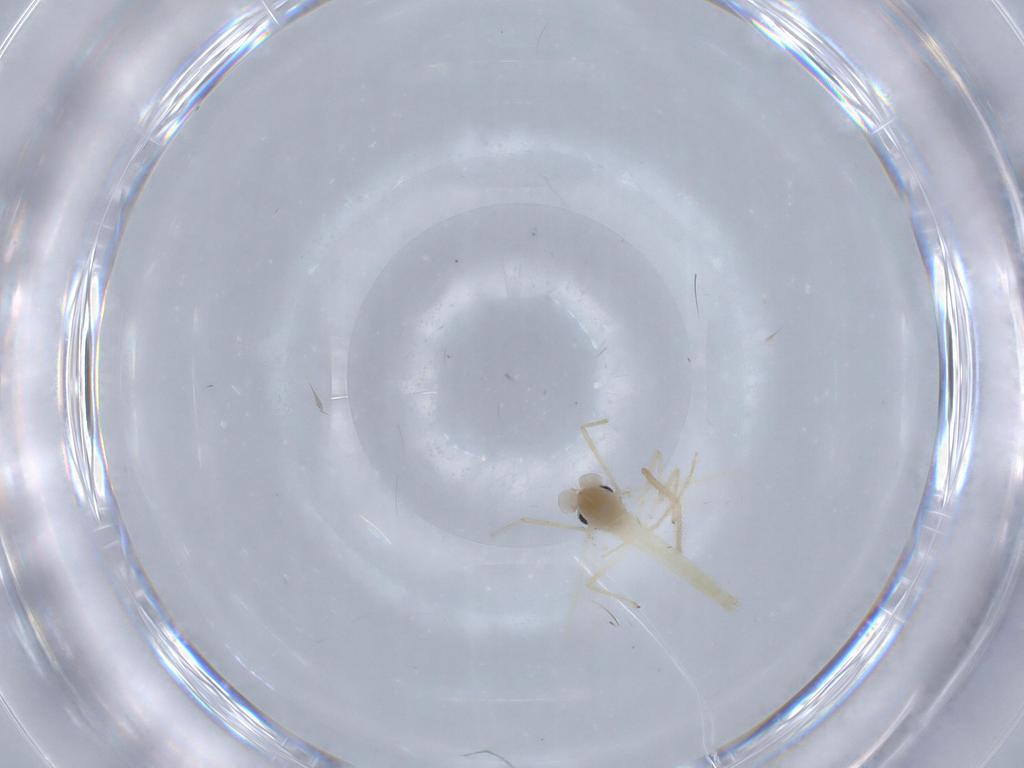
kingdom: Animalia
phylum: Arthropoda
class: Insecta
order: Diptera
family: Chironomidae
